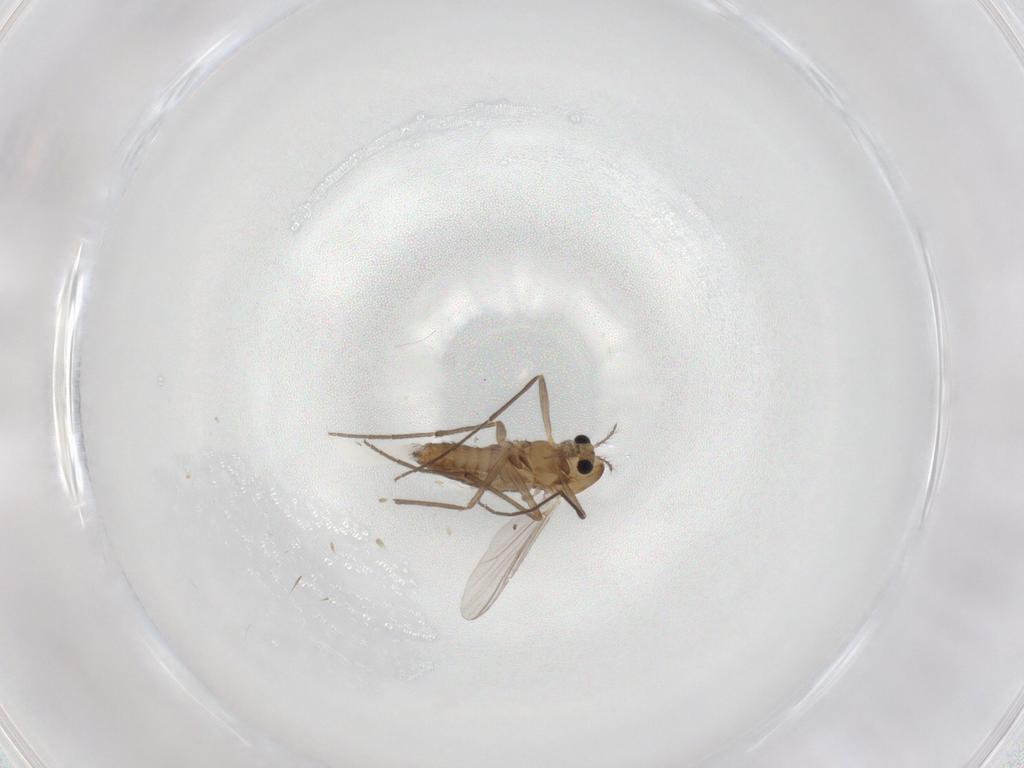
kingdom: Animalia
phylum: Arthropoda
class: Insecta
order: Diptera
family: Chironomidae
